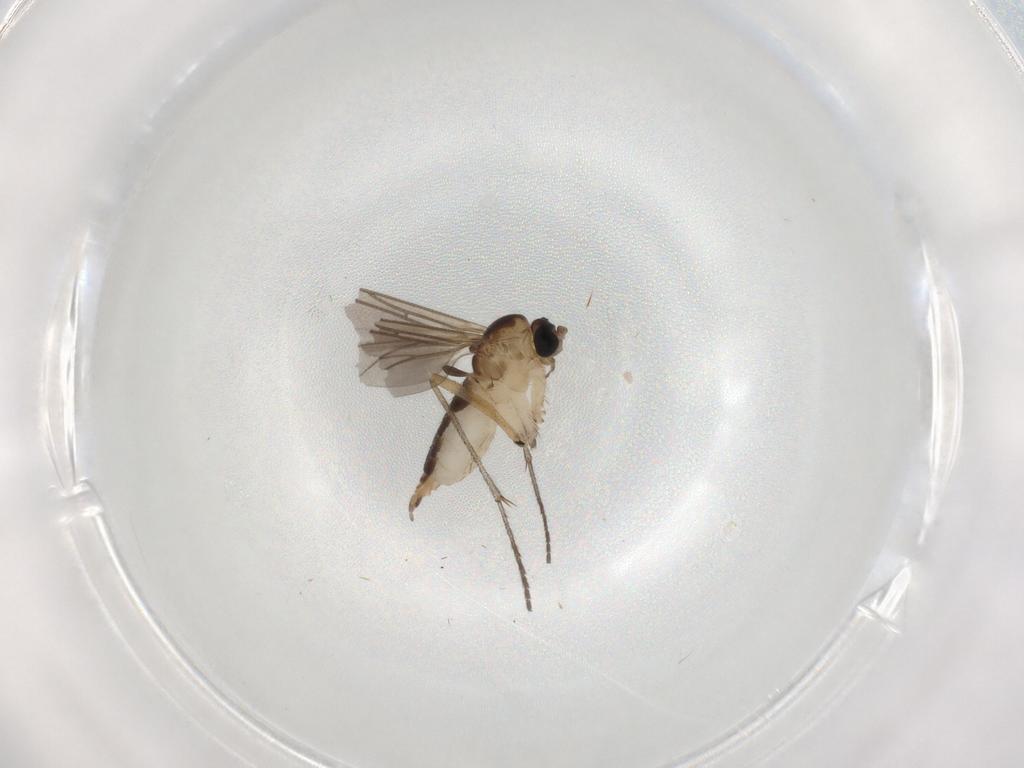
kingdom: Animalia
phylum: Arthropoda
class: Insecta
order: Diptera
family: Sciaridae
